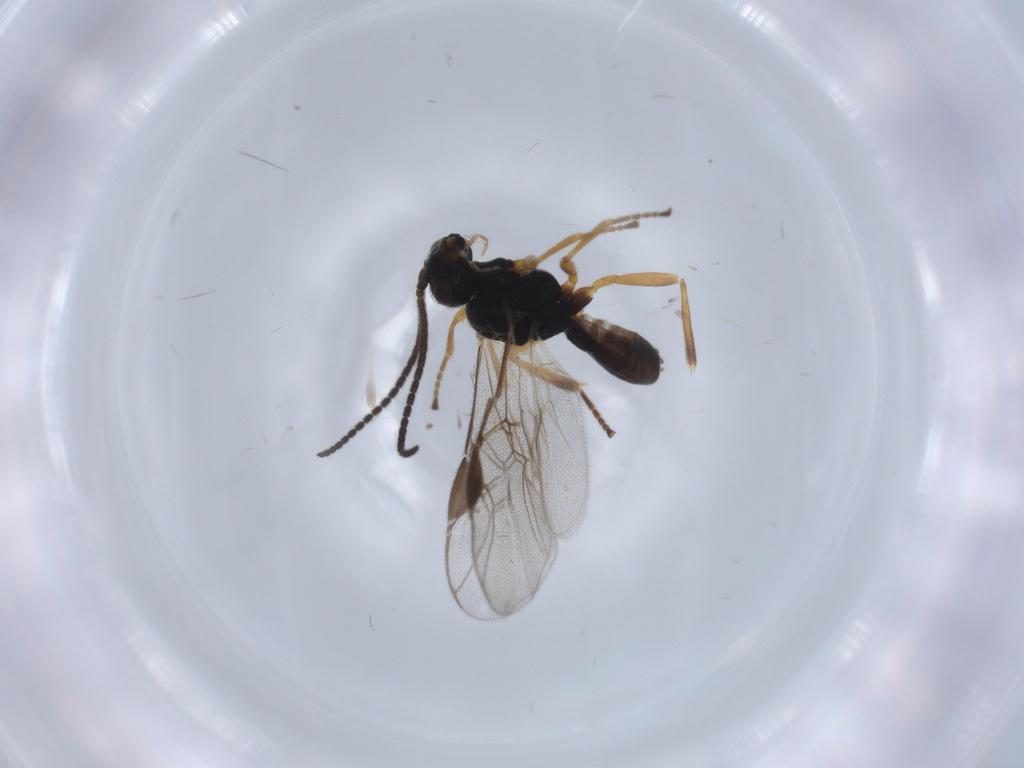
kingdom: Animalia
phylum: Arthropoda
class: Insecta
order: Hymenoptera
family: Braconidae
